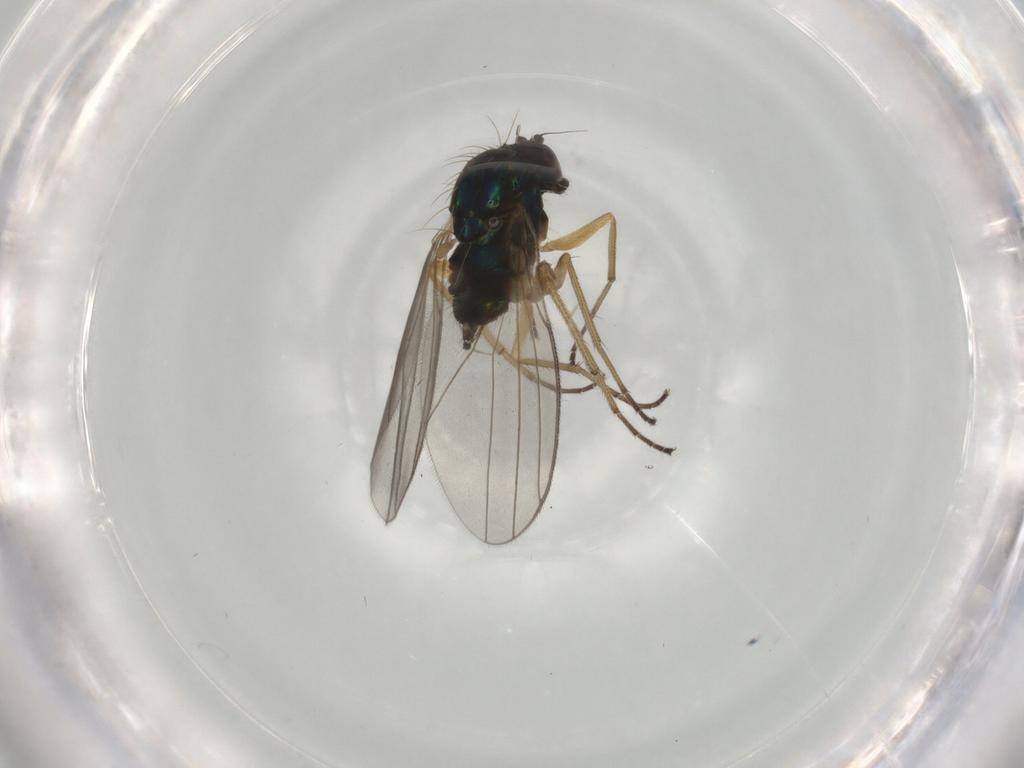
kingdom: Animalia
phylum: Arthropoda
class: Insecta
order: Diptera
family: Dolichopodidae
